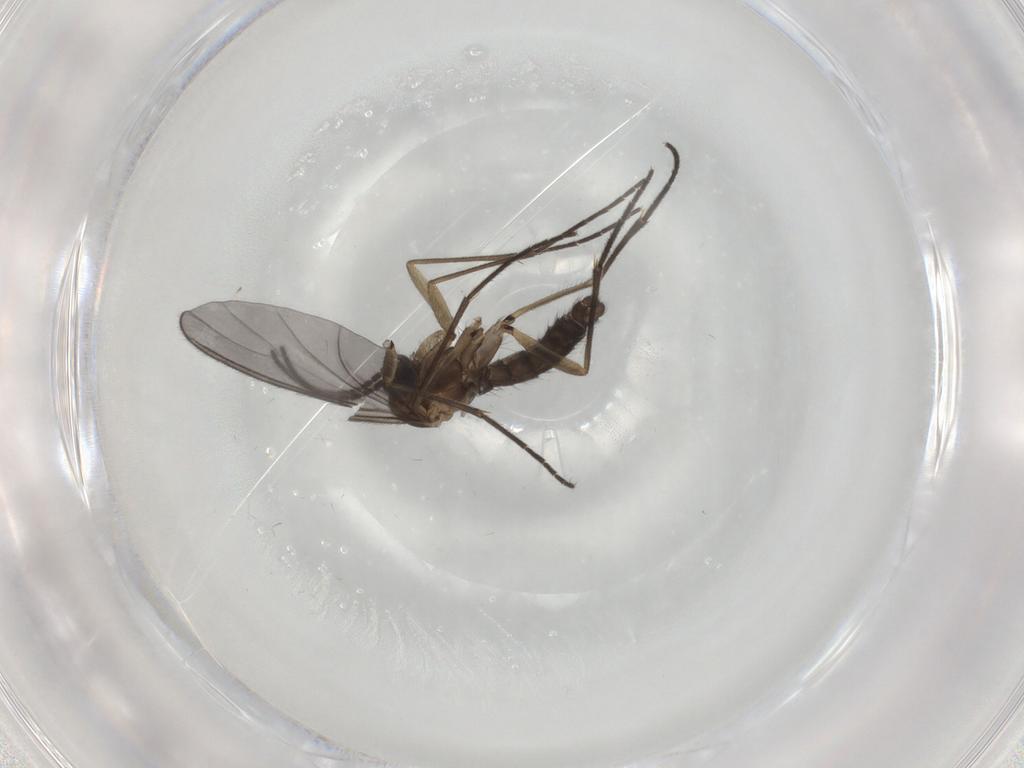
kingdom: Animalia
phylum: Arthropoda
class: Insecta
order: Diptera
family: Sciaridae
